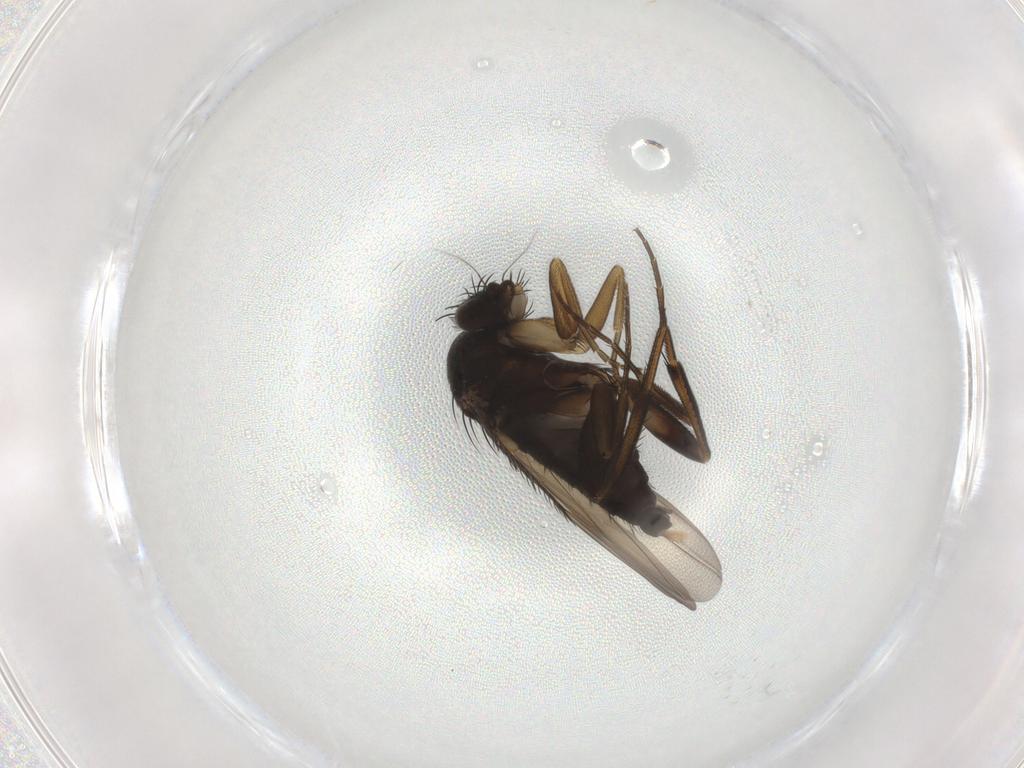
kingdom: Animalia
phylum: Arthropoda
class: Insecta
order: Diptera
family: Phoridae
